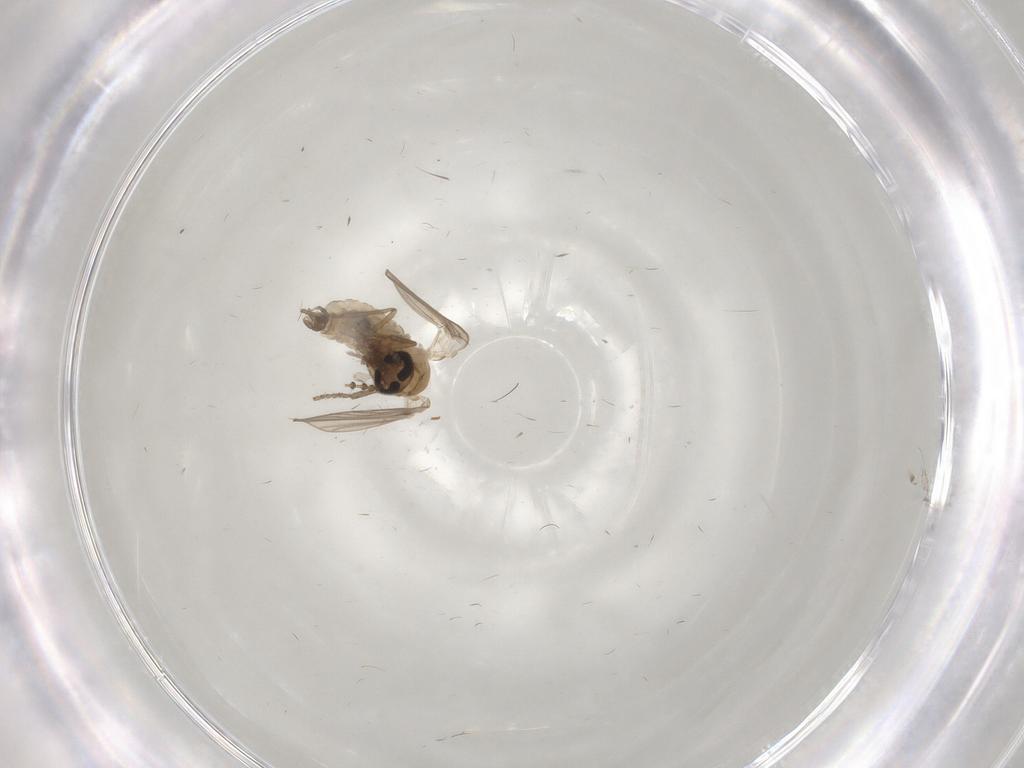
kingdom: Animalia
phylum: Arthropoda
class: Insecta
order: Diptera
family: Psychodidae
